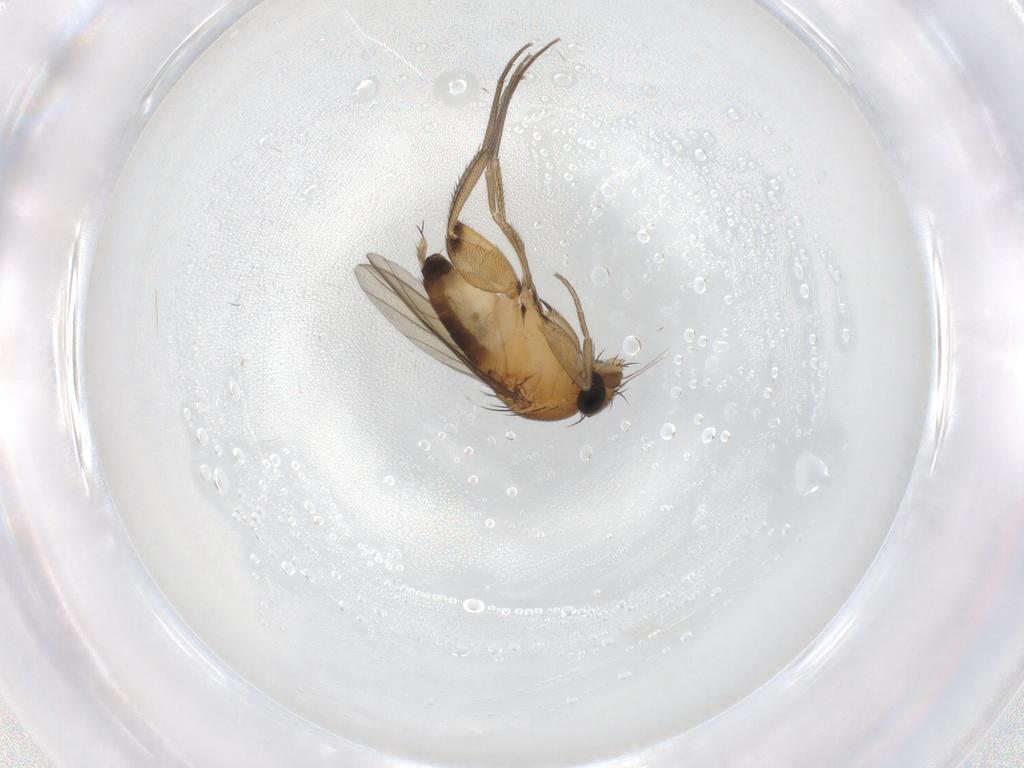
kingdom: Animalia
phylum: Arthropoda
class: Insecta
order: Diptera
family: Phoridae
